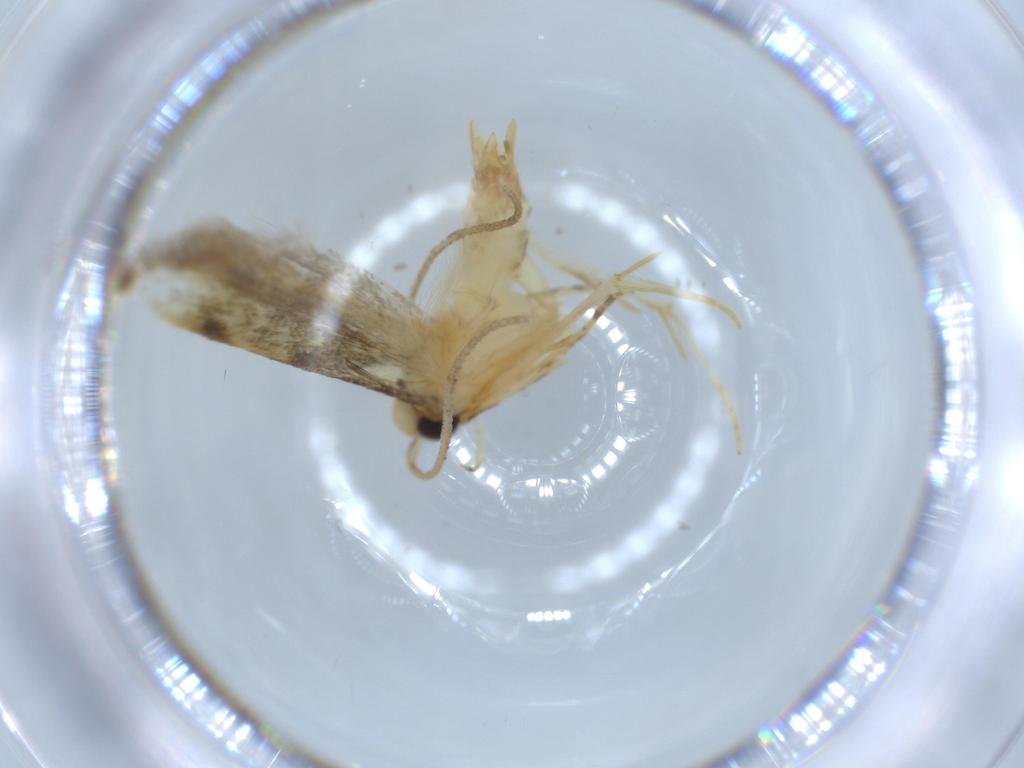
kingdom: Animalia
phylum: Arthropoda
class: Insecta
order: Lepidoptera
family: Autostichidae
